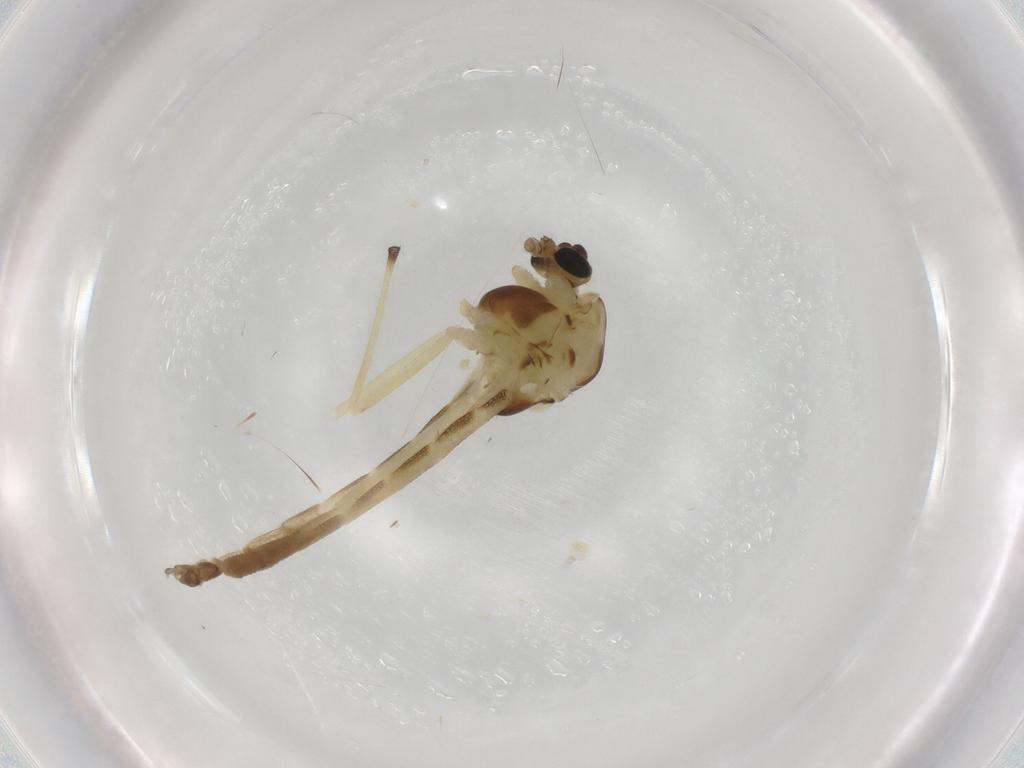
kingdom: Animalia
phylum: Arthropoda
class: Insecta
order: Diptera
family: Chironomidae
